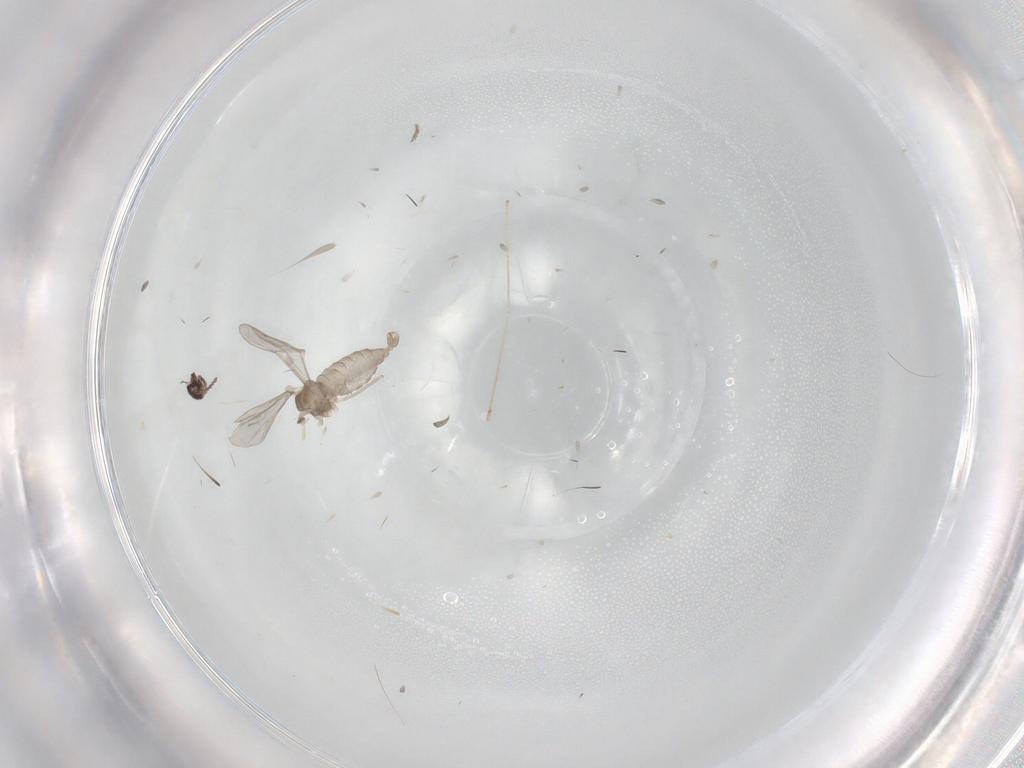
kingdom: Animalia
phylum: Arthropoda
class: Insecta
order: Diptera
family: Cecidomyiidae
